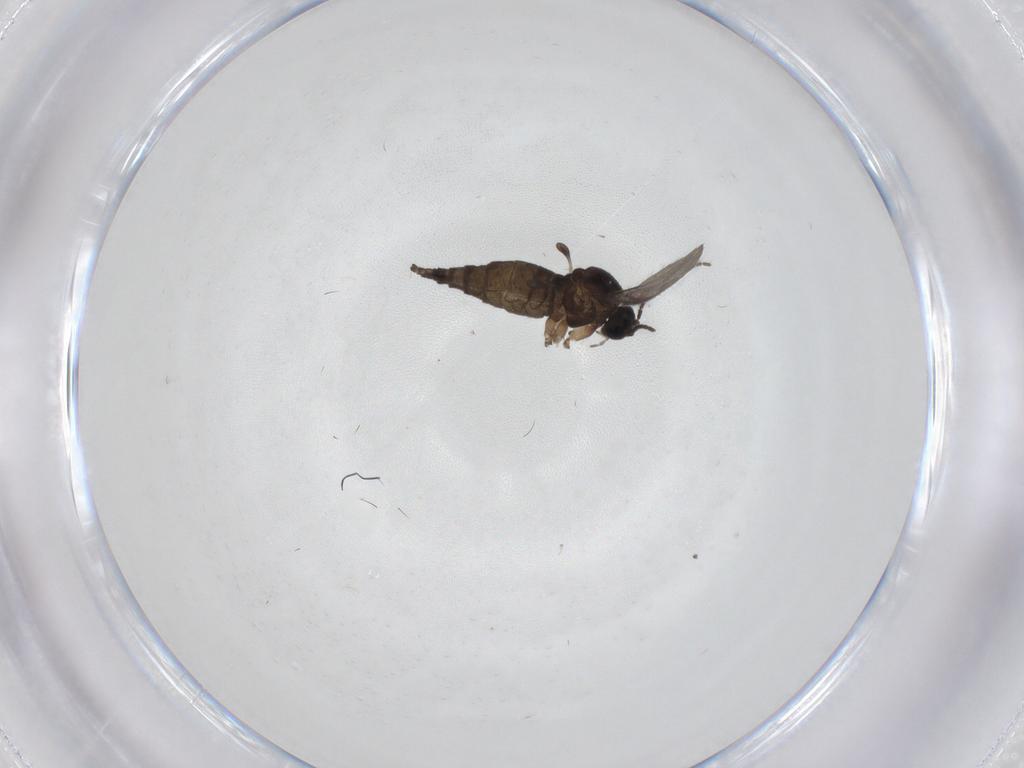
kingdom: Animalia
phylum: Arthropoda
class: Insecta
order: Diptera
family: Sciaridae
